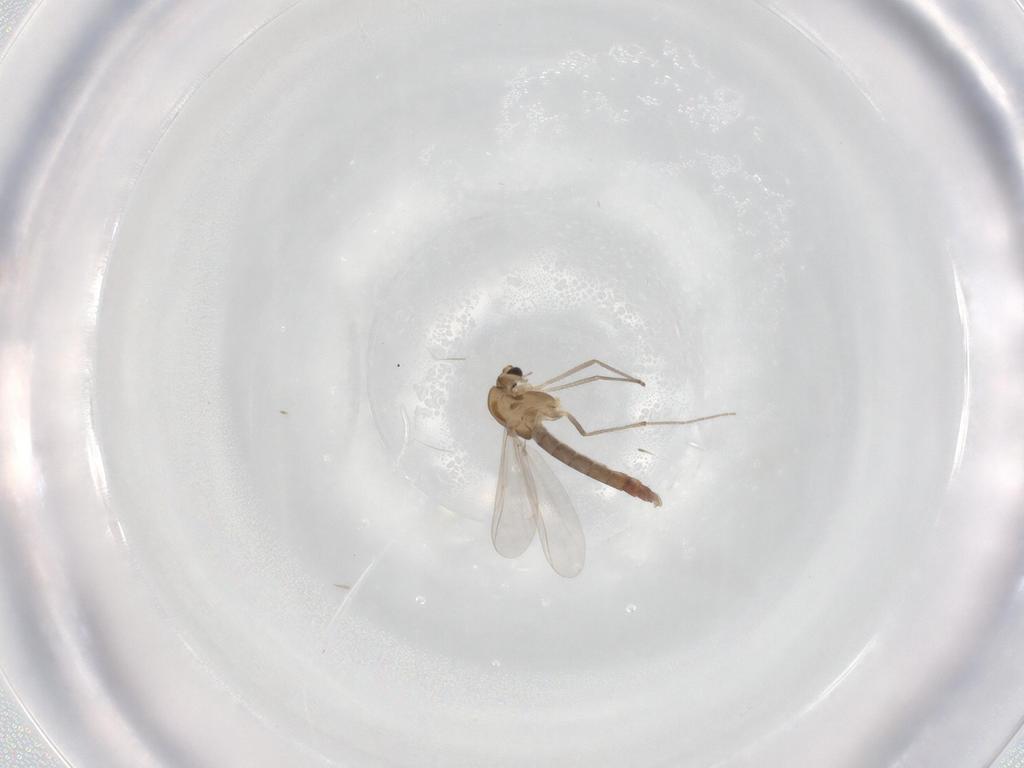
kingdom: Animalia
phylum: Arthropoda
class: Insecta
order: Diptera
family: Chironomidae
